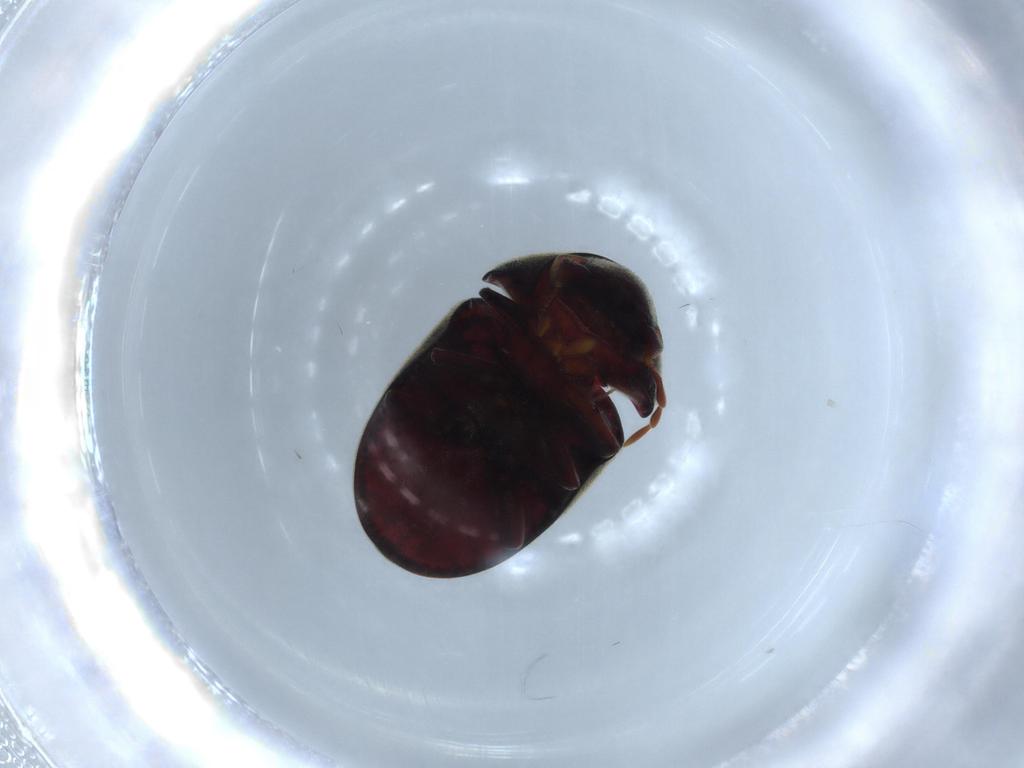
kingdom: Animalia
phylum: Arthropoda
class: Insecta
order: Coleoptera
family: Ptinidae
